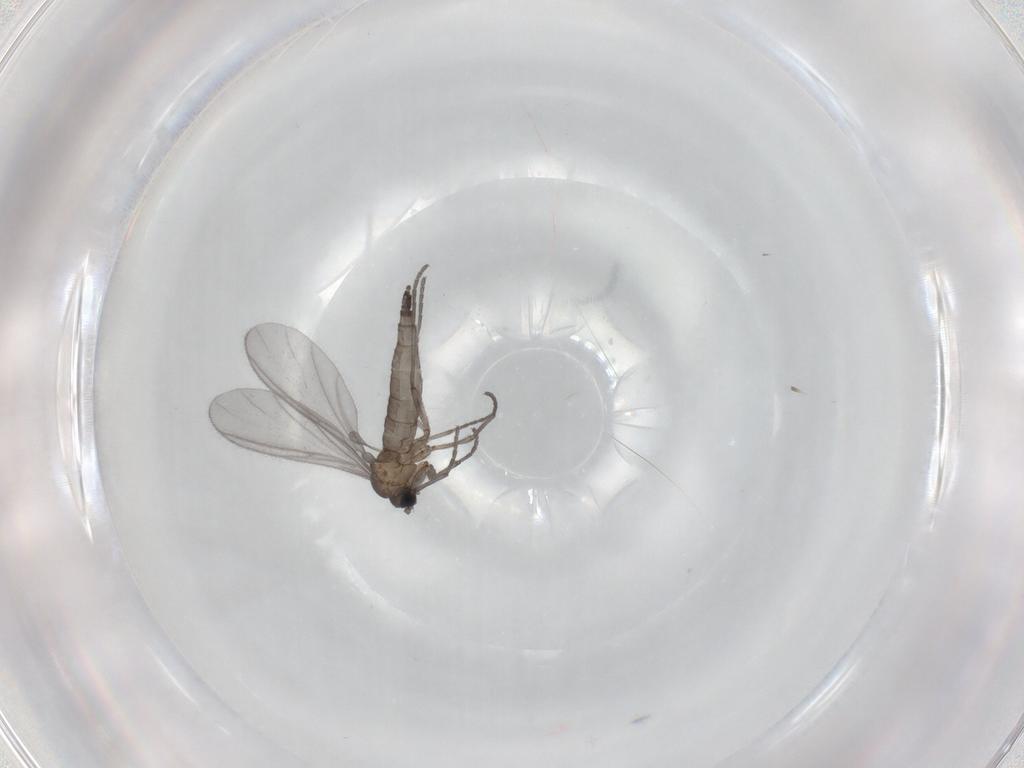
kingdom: Animalia
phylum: Arthropoda
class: Insecta
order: Diptera
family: Sciaridae
